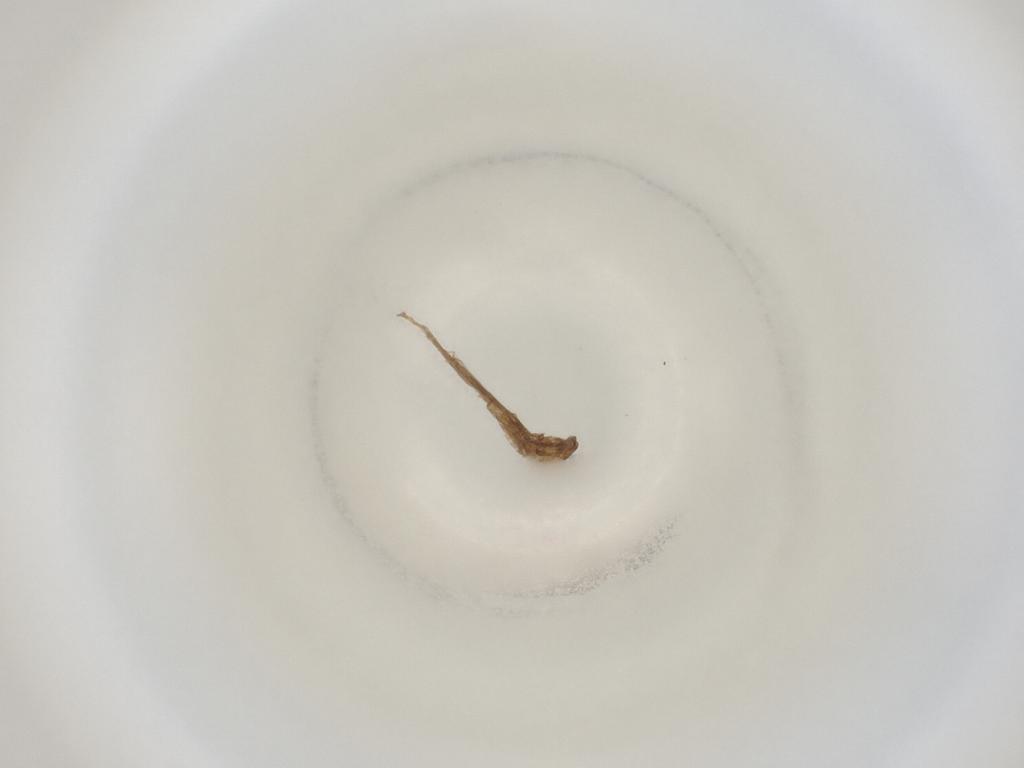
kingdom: Animalia
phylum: Arthropoda
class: Insecta
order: Diptera
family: Cecidomyiidae
